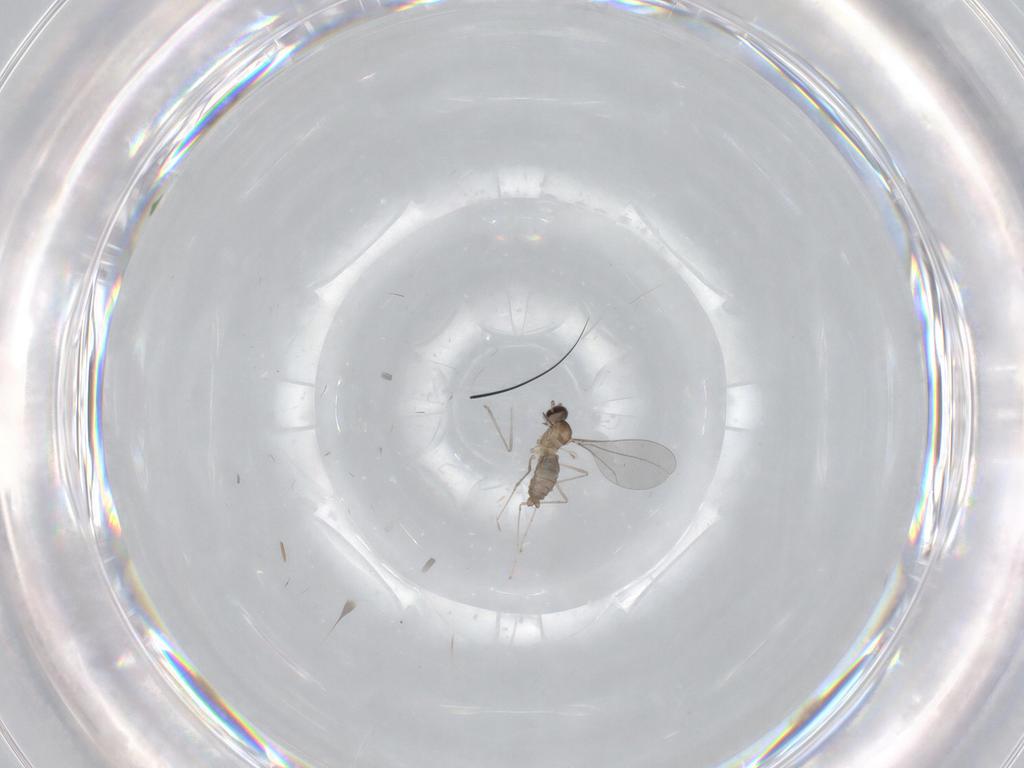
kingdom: Animalia
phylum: Arthropoda
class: Insecta
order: Diptera
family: Cecidomyiidae
